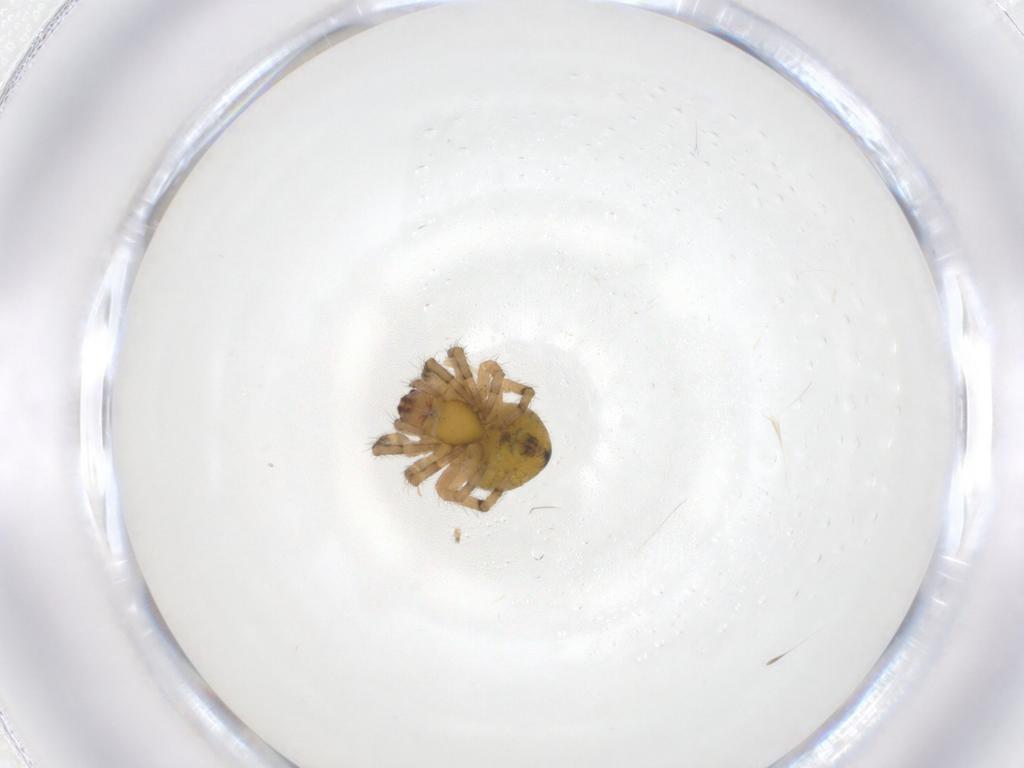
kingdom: Animalia
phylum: Arthropoda
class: Arachnida
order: Araneae
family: Araneidae
